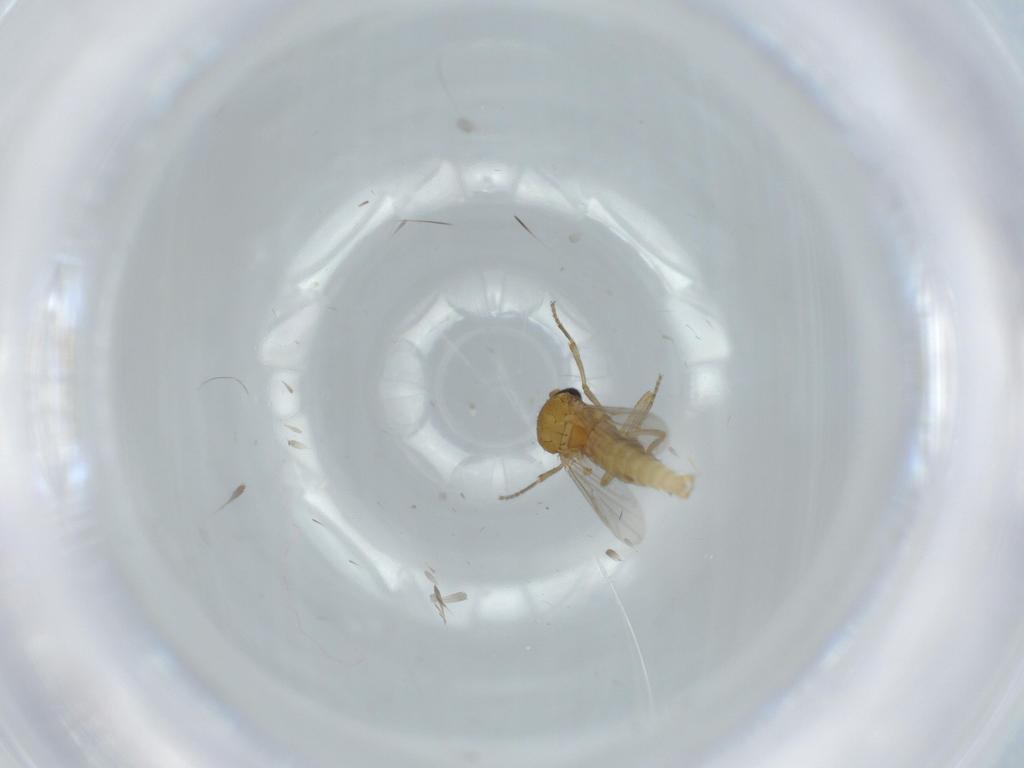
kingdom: Animalia
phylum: Arthropoda
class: Insecta
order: Diptera
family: Ceratopogonidae
